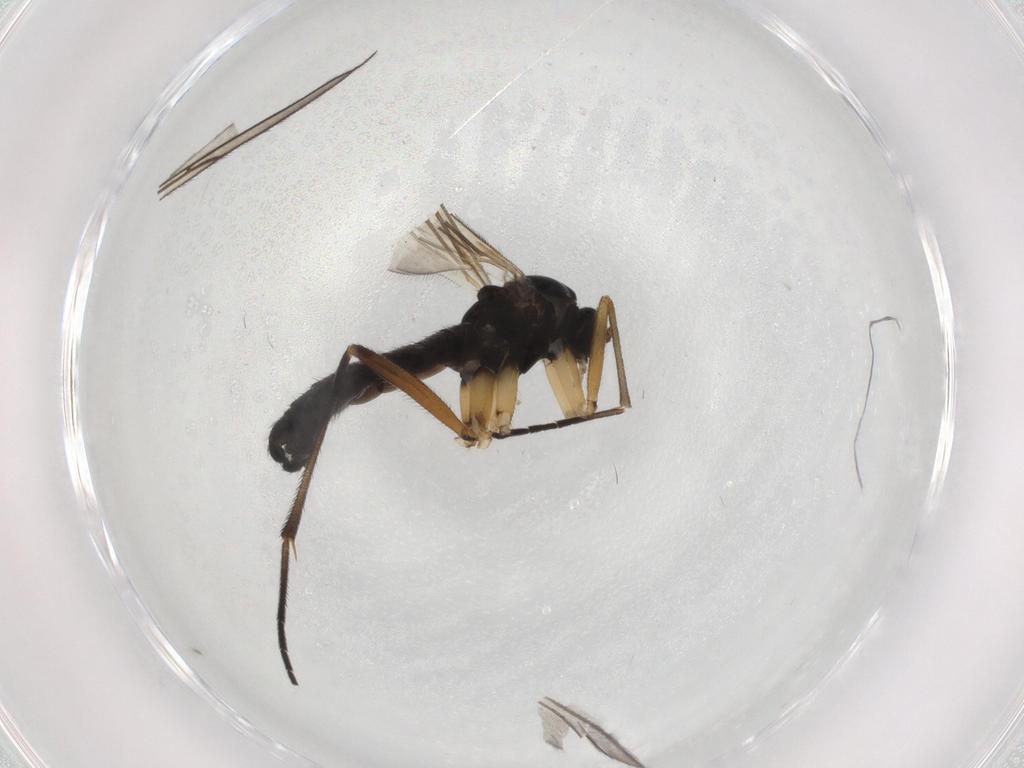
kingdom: Animalia
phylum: Arthropoda
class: Insecta
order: Diptera
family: Sciaridae
